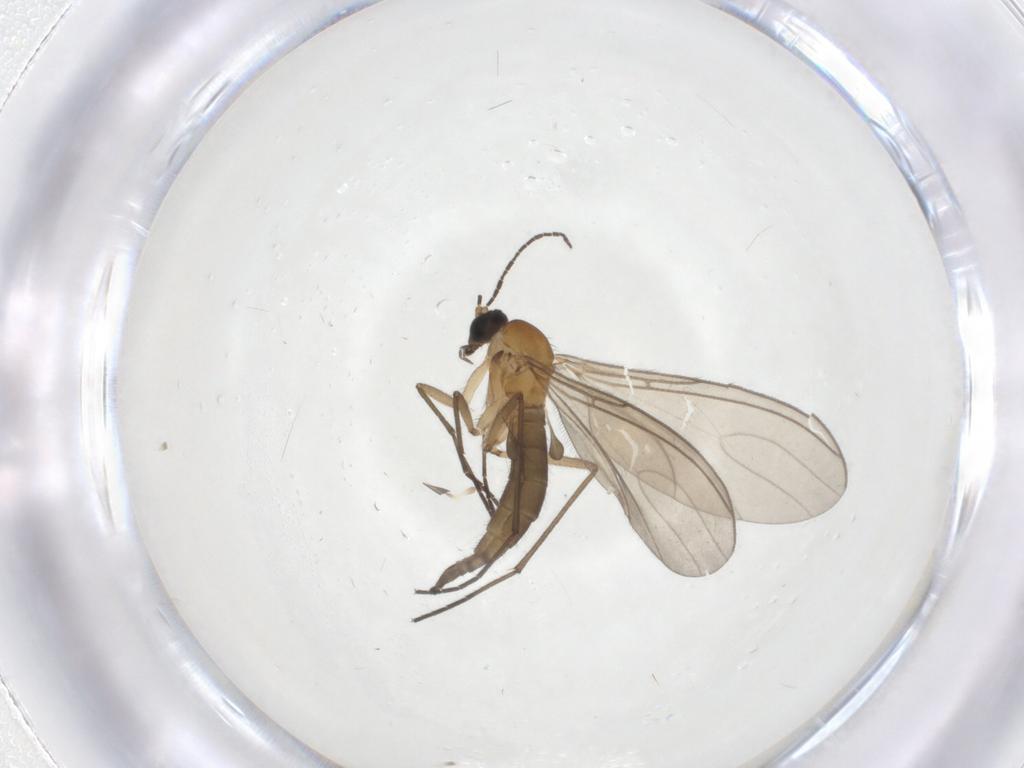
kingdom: Animalia
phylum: Arthropoda
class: Insecta
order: Diptera
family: Sciaridae
